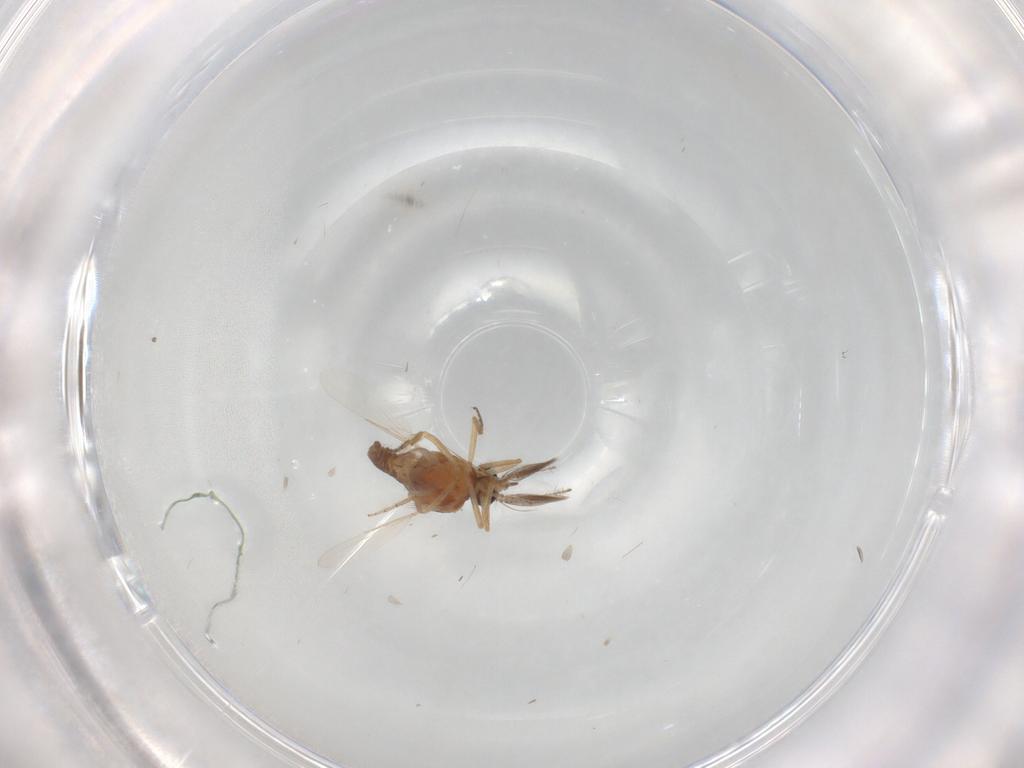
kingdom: Animalia
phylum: Arthropoda
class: Insecta
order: Diptera
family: Ceratopogonidae
